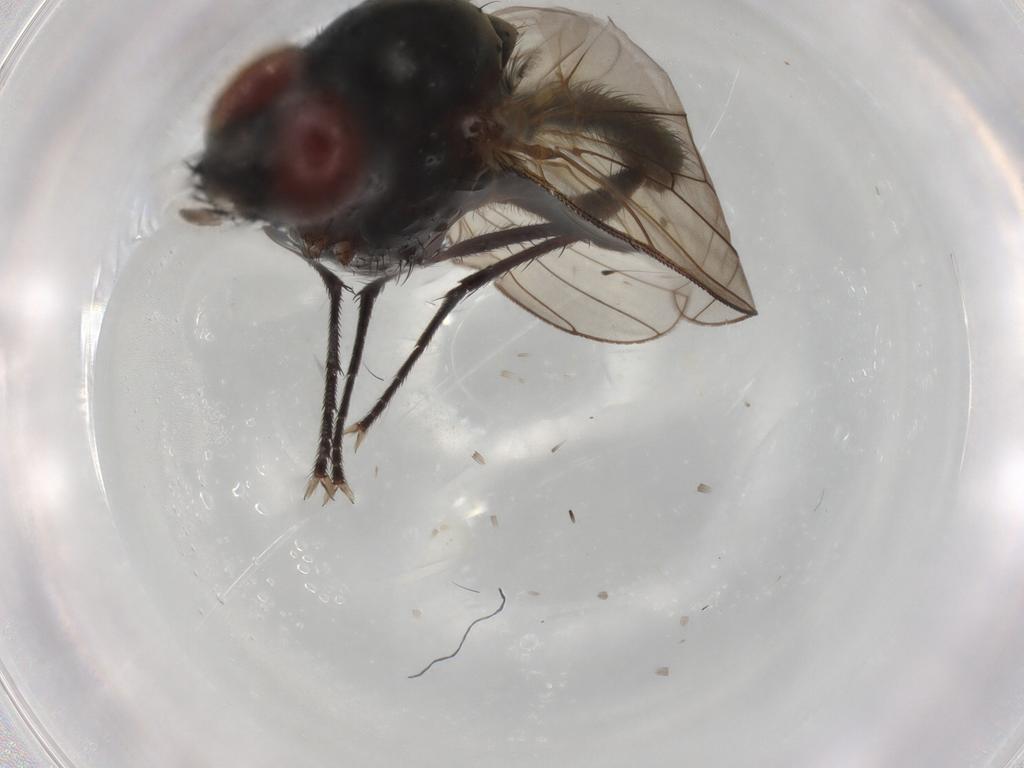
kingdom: Animalia
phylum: Arthropoda
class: Insecta
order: Diptera
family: Anthomyiidae
